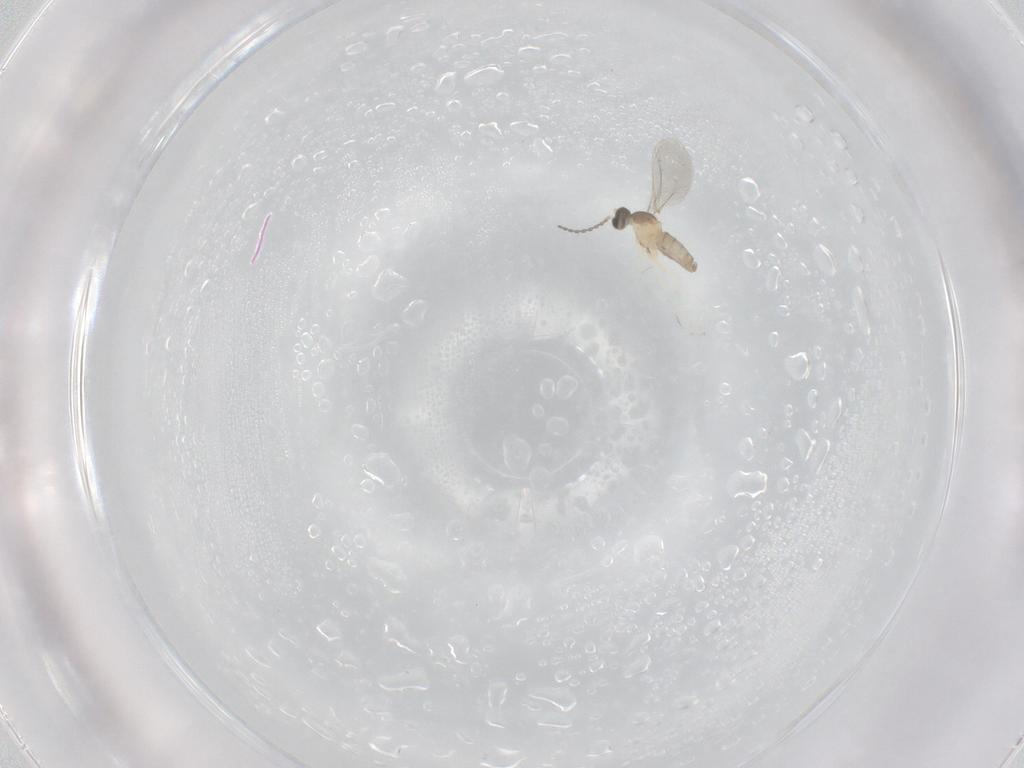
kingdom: Animalia
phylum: Arthropoda
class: Insecta
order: Diptera
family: Cecidomyiidae
